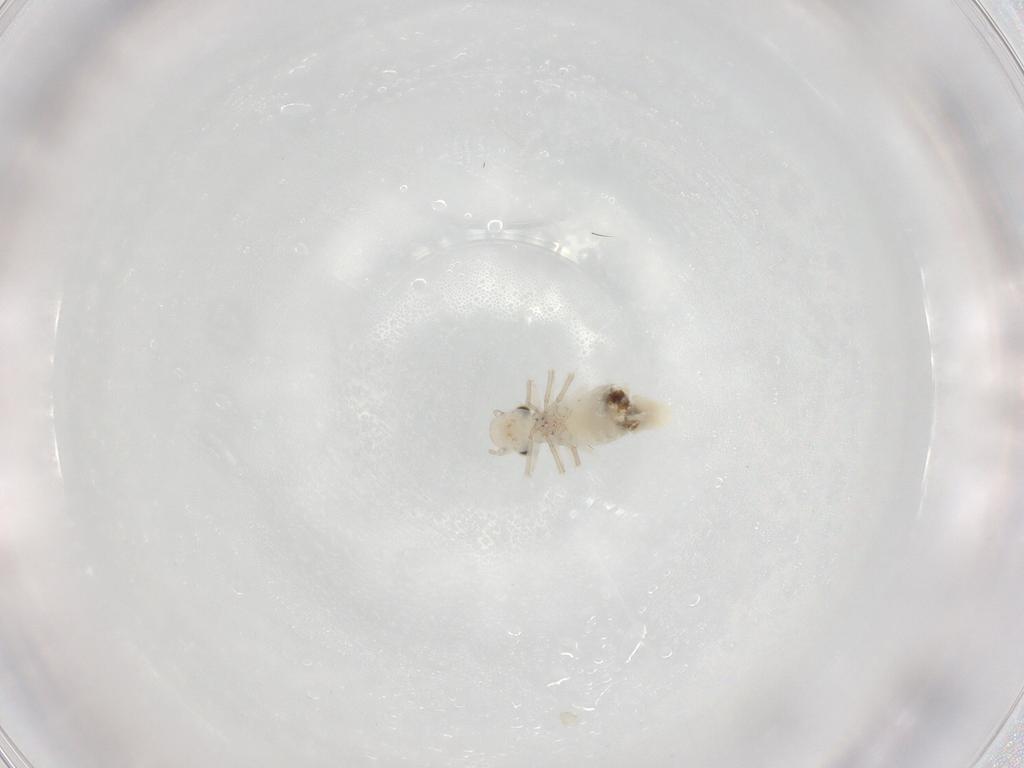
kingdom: Animalia
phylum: Arthropoda
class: Insecta
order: Psocodea
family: Caeciliusidae
